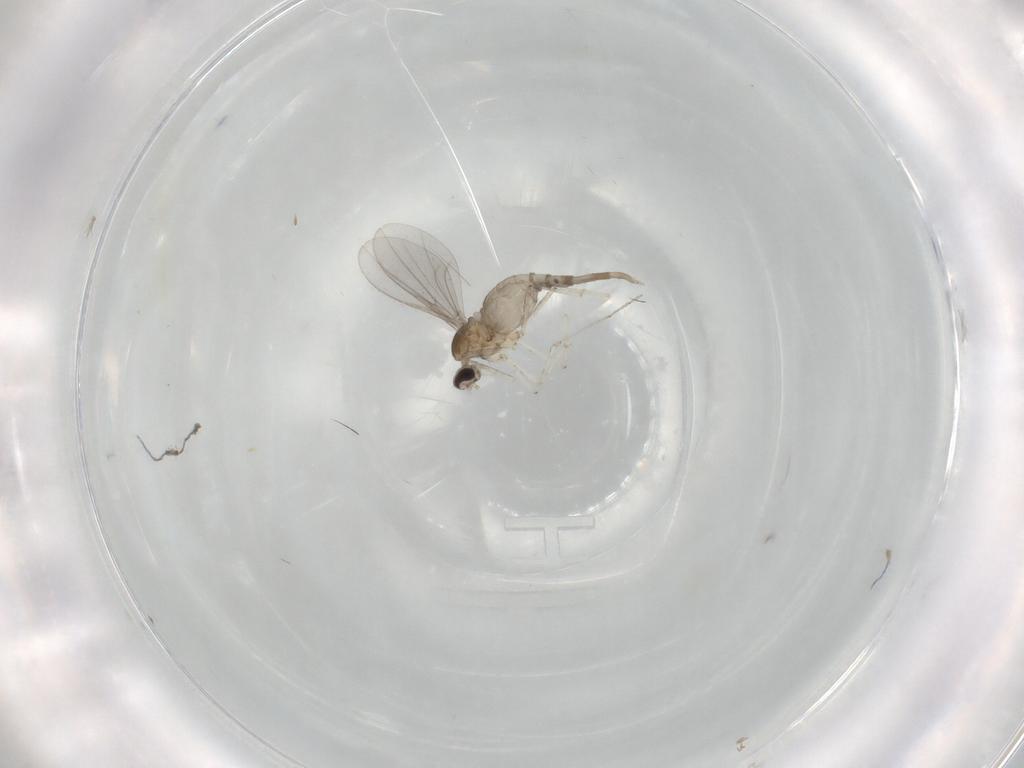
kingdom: Animalia
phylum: Arthropoda
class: Insecta
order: Diptera
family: Cecidomyiidae
